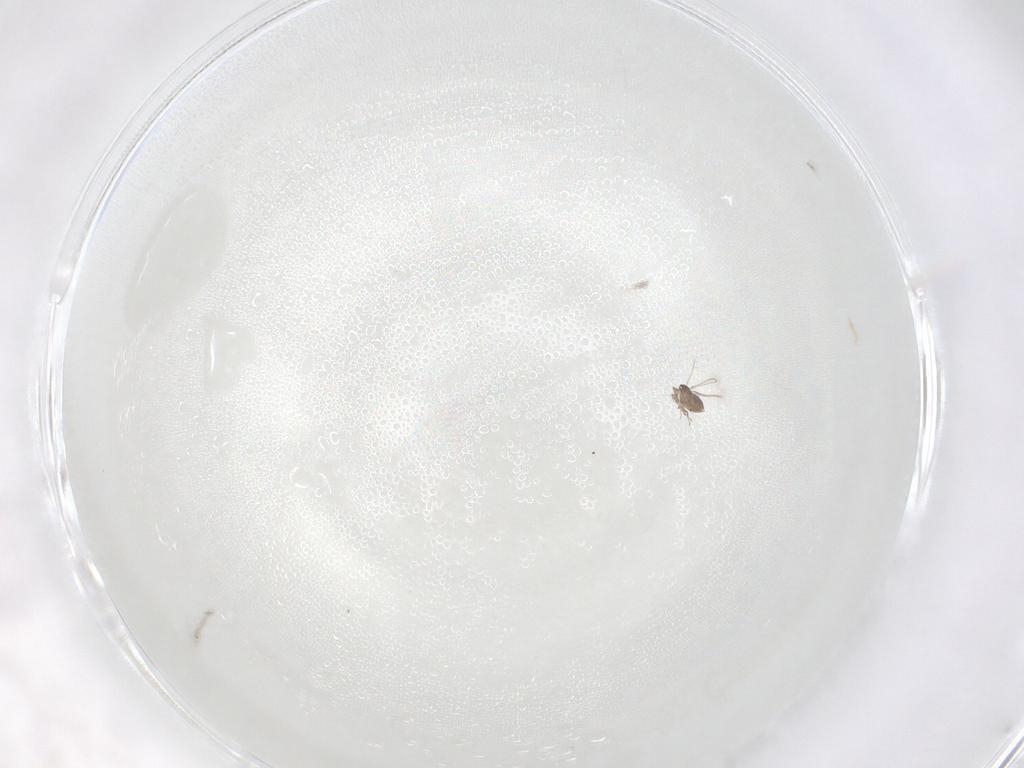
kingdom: Animalia
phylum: Arthropoda
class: Insecta
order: Hymenoptera
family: Mymaridae
